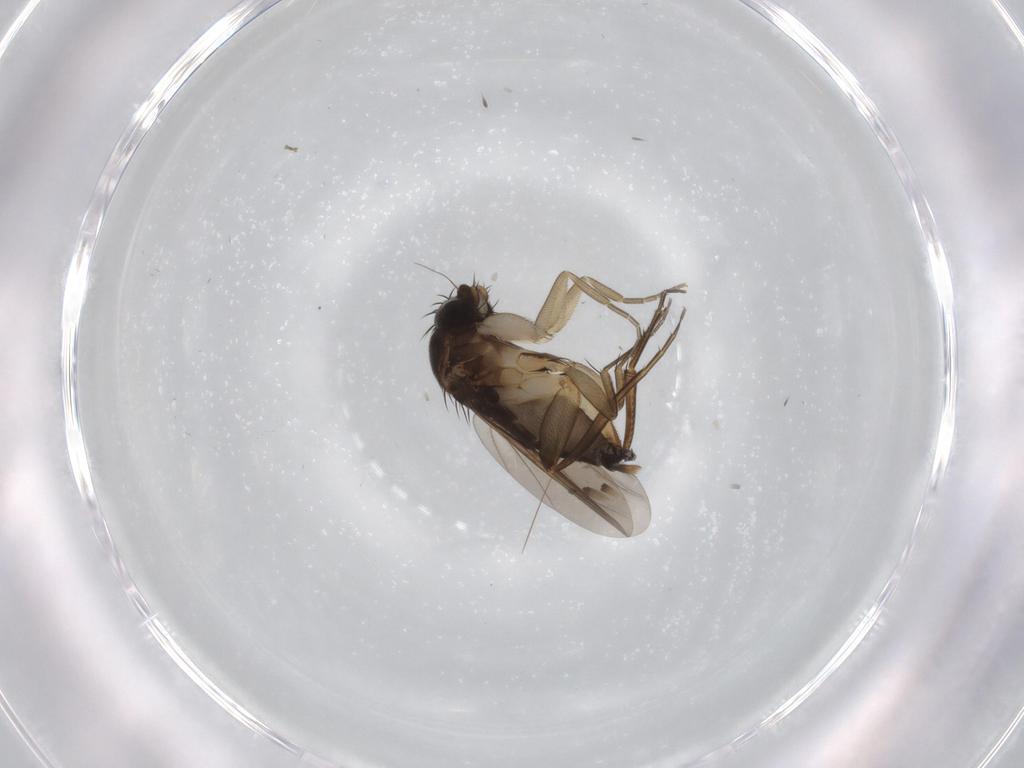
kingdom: Animalia
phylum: Arthropoda
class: Insecta
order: Diptera
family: Phoridae
